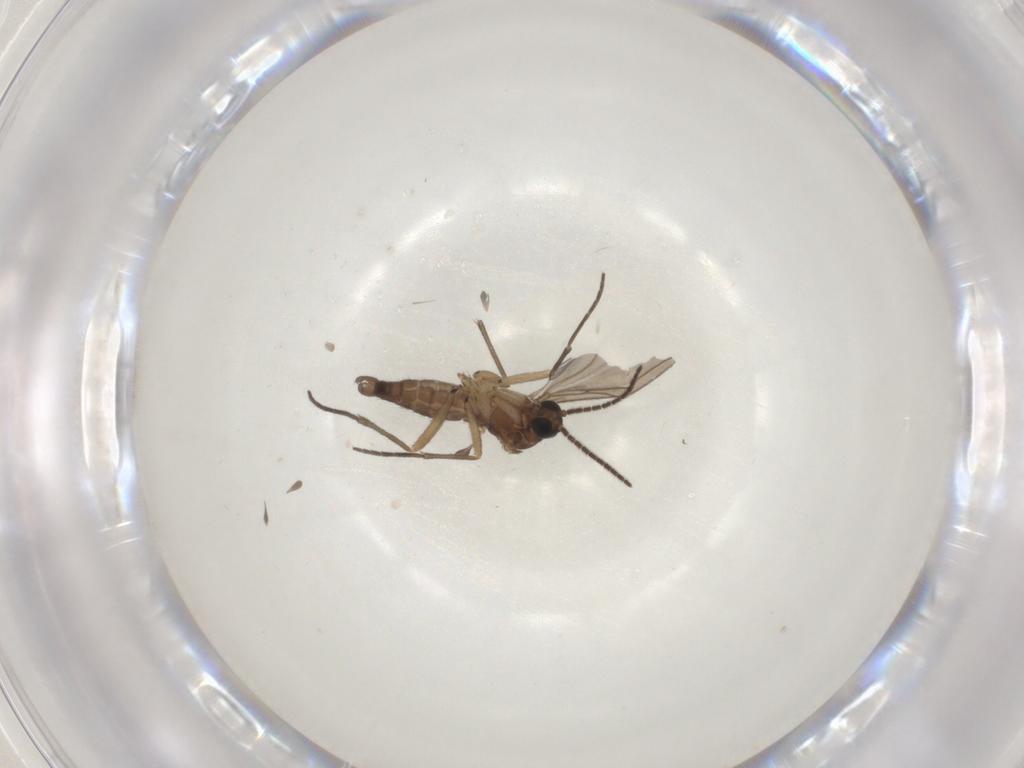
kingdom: Animalia
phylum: Arthropoda
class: Insecta
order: Diptera
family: Sciaridae
